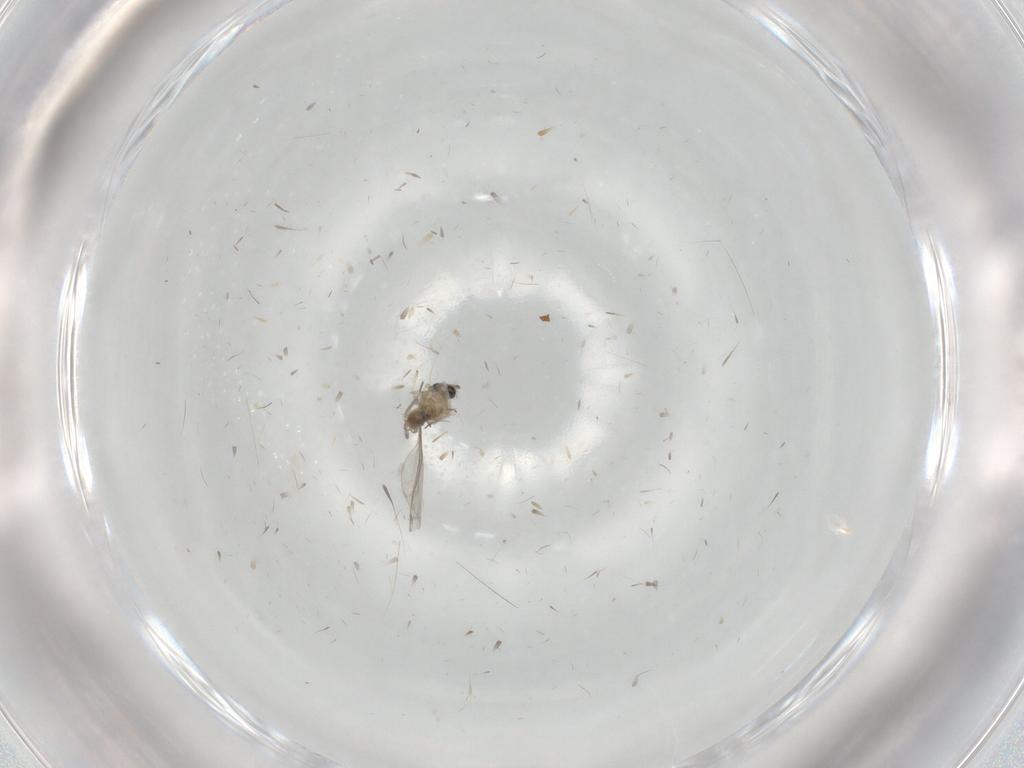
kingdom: Animalia
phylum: Arthropoda
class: Insecta
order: Diptera
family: Cecidomyiidae
